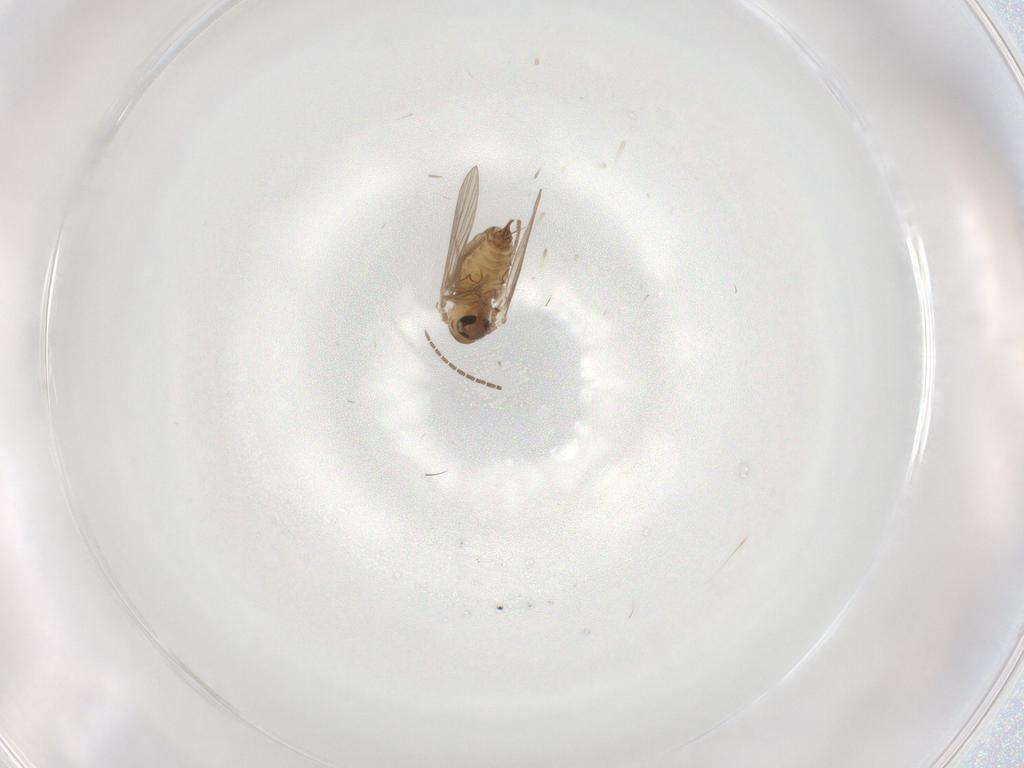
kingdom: Animalia
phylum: Arthropoda
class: Insecta
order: Diptera
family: Sciaridae
